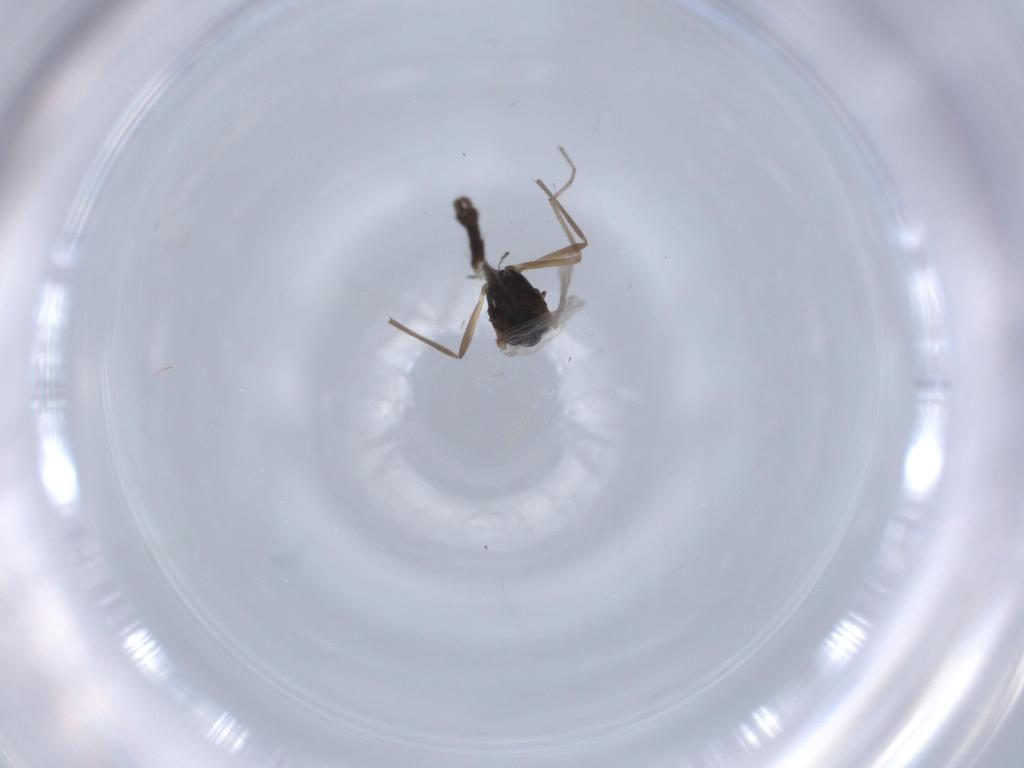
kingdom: Animalia
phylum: Arthropoda
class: Insecta
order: Diptera
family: Chironomidae
